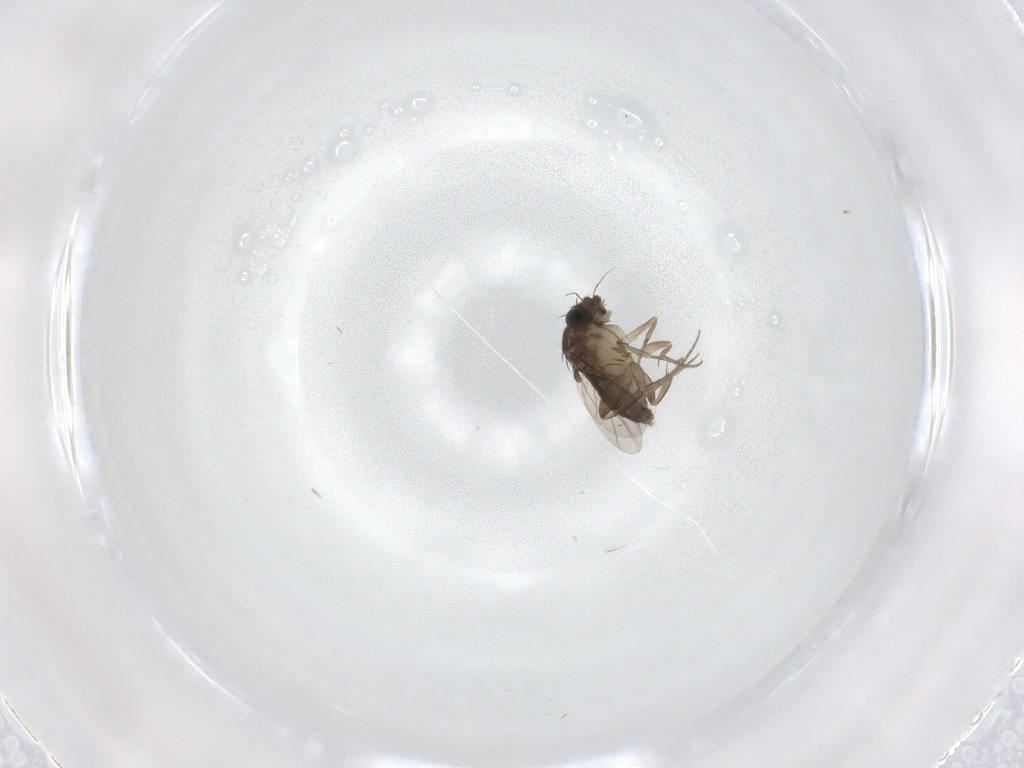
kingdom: Animalia
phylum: Arthropoda
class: Insecta
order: Diptera
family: Phoridae
